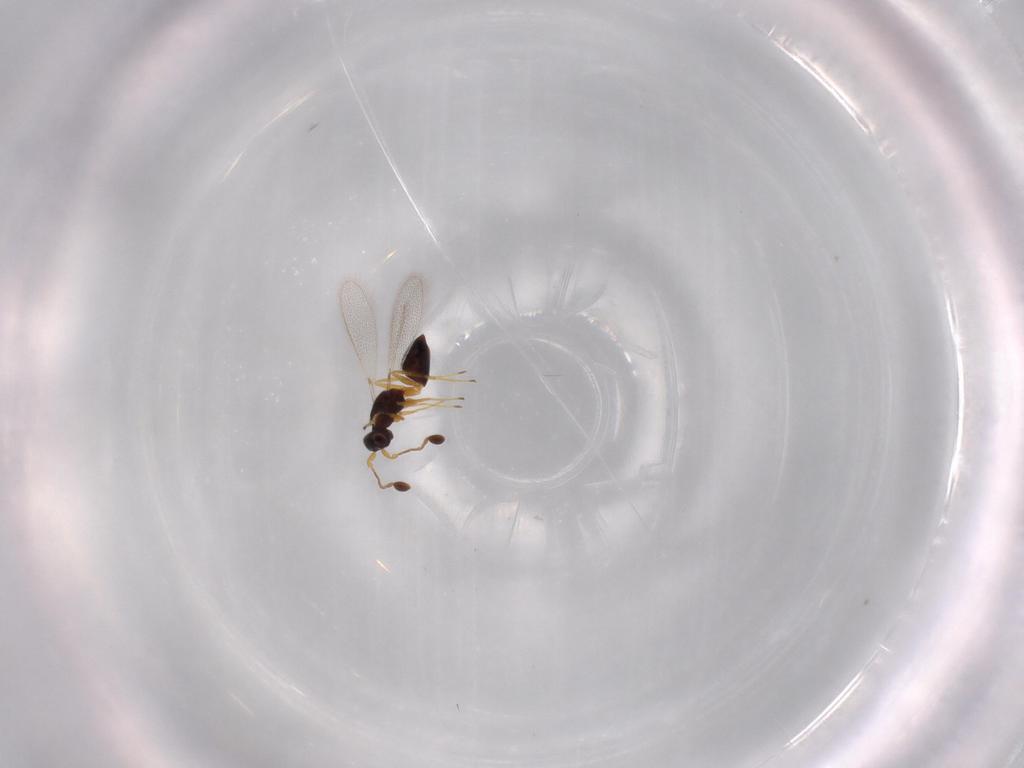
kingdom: Animalia
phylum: Arthropoda
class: Insecta
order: Hymenoptera
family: Mymaridae
